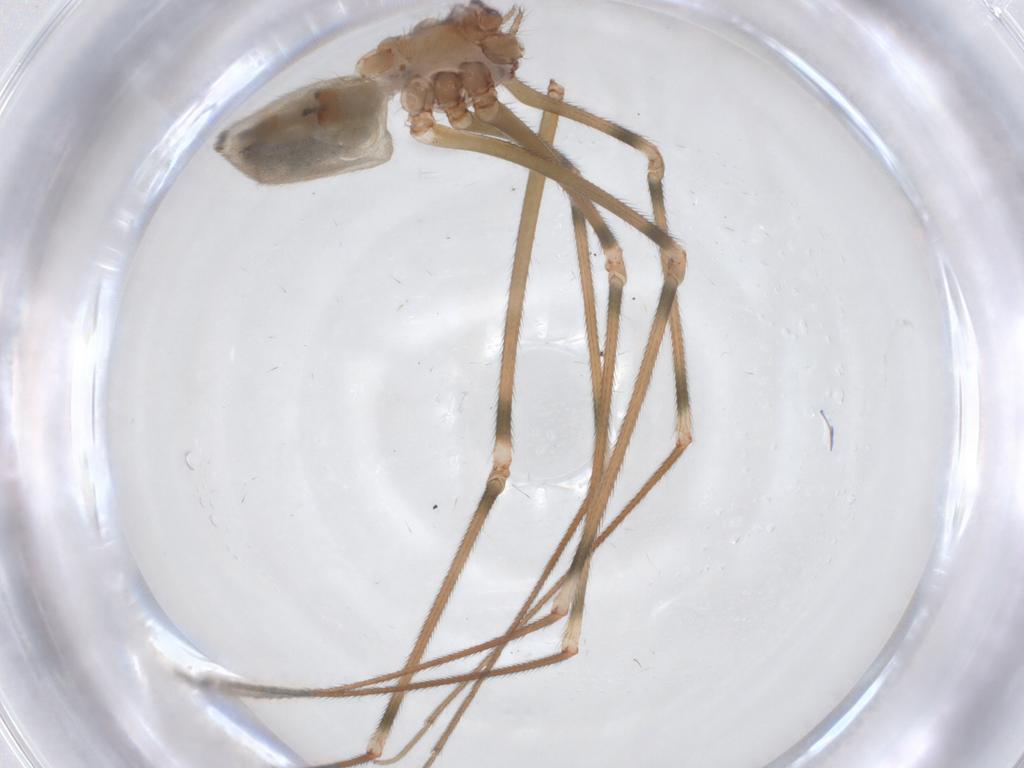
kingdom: Animalia
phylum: Arthropoda
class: Arachnida
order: Araneae
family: Pholcidae
